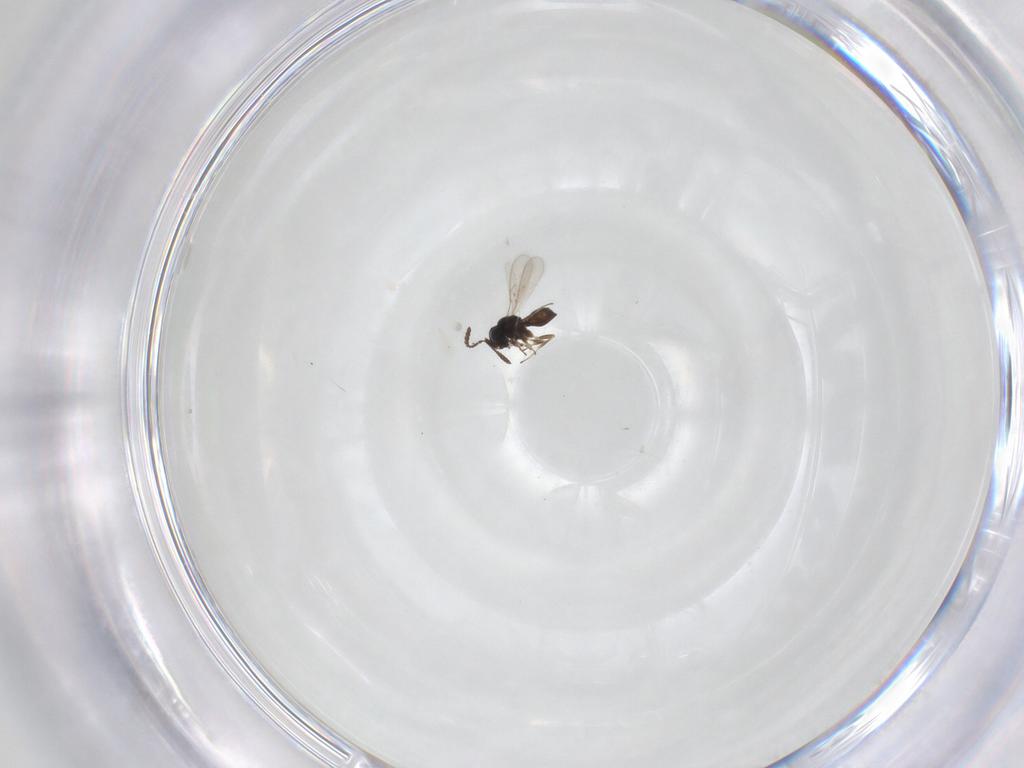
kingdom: Animalia
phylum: Arthropoda
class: Insecta
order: Hymenoptera
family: Scelionidae
